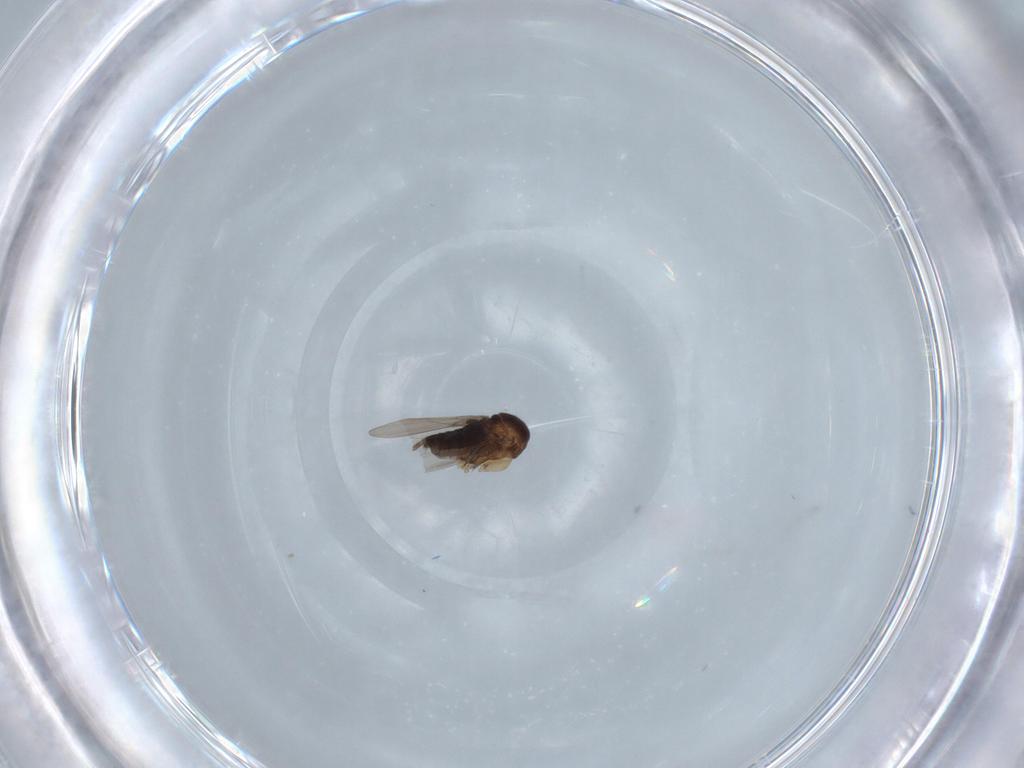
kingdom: Animalia
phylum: Arthropoda
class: Insecta
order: Diptera
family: Phoridae
